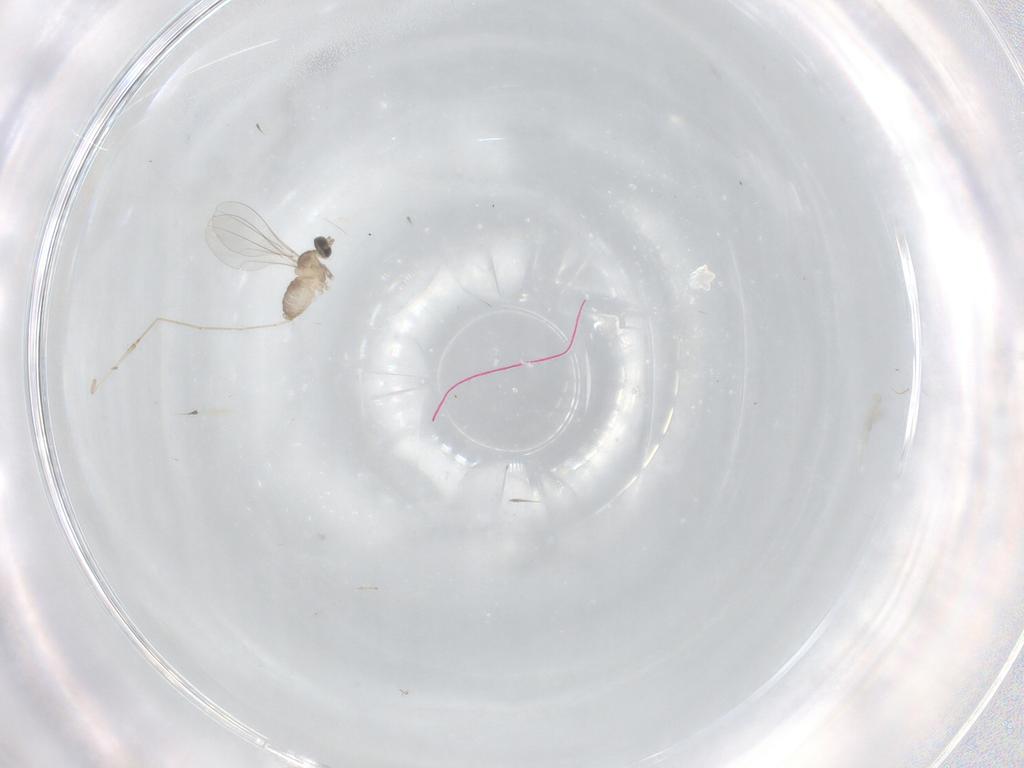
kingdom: Animalia
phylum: Arthropoda
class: Insecta
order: Diptera
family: Cecidomyiidae
